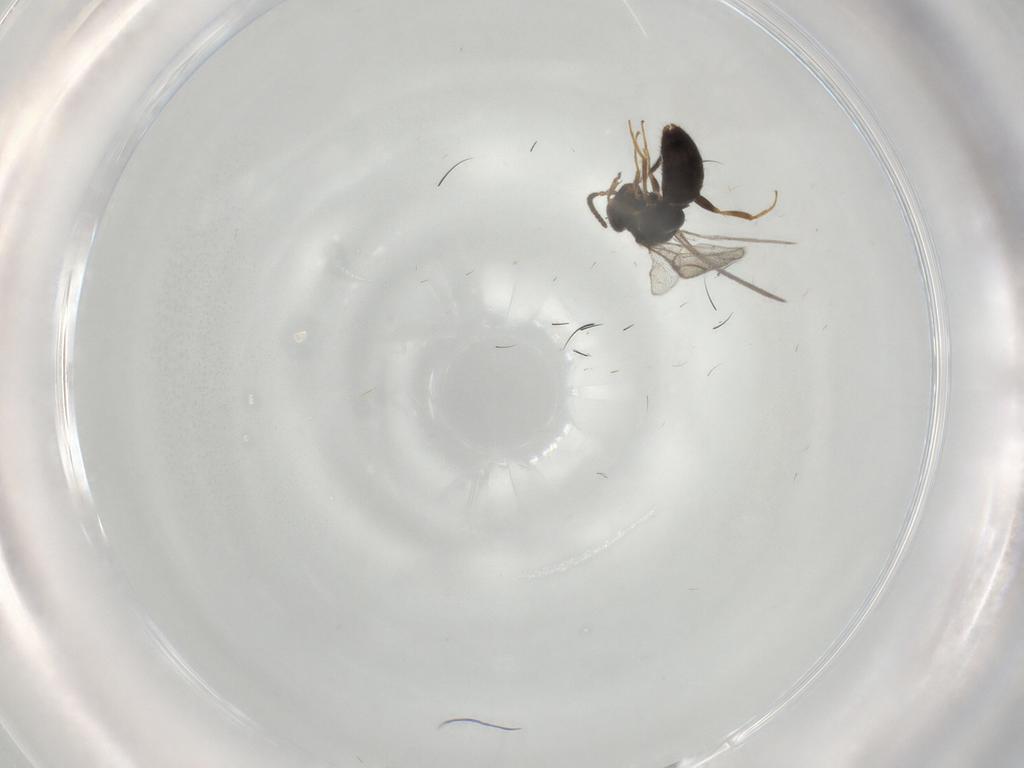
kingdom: Animalia
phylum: Arthropoda
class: Insecta
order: Hymenoptera
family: Bethylidae
